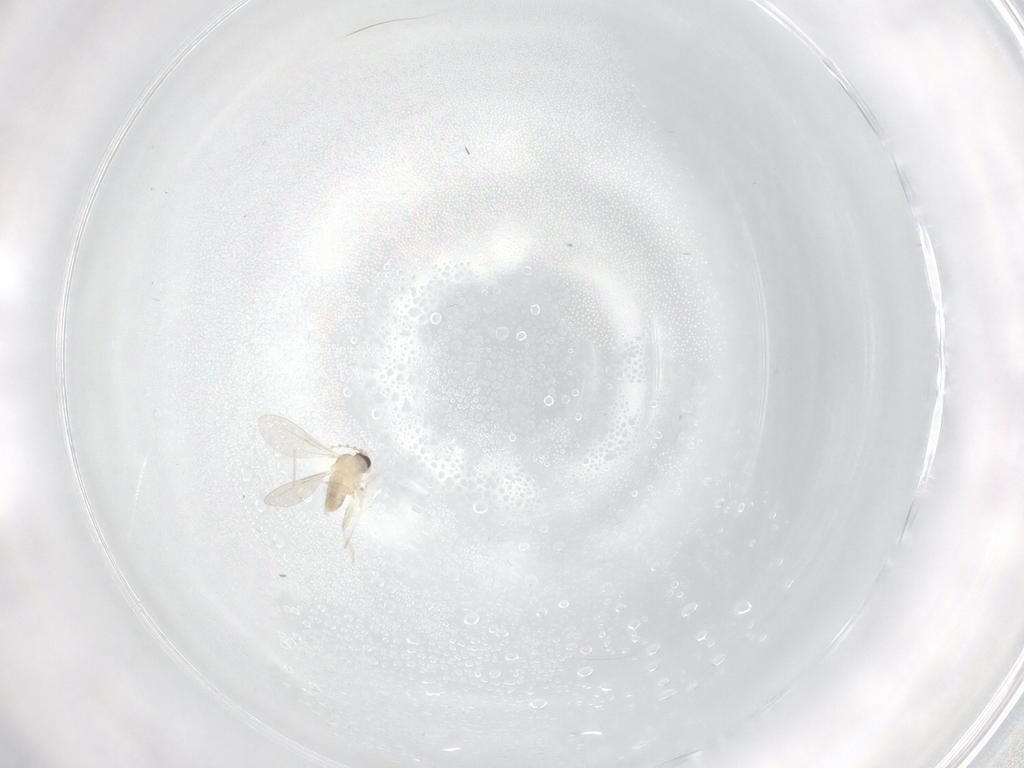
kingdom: Animalia
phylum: Arthropoda
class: Insecta
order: Diptera
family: Cecidomyiidae
